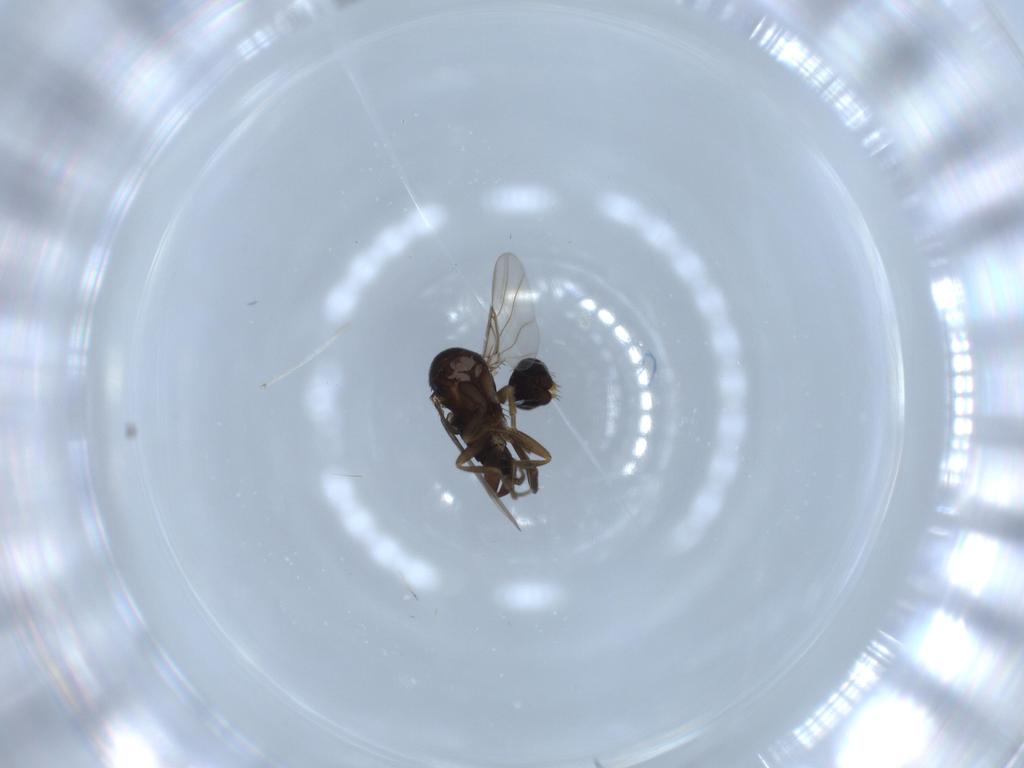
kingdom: Animalia
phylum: Arthropoda
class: Insecta
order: Diptera
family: Phoridae
